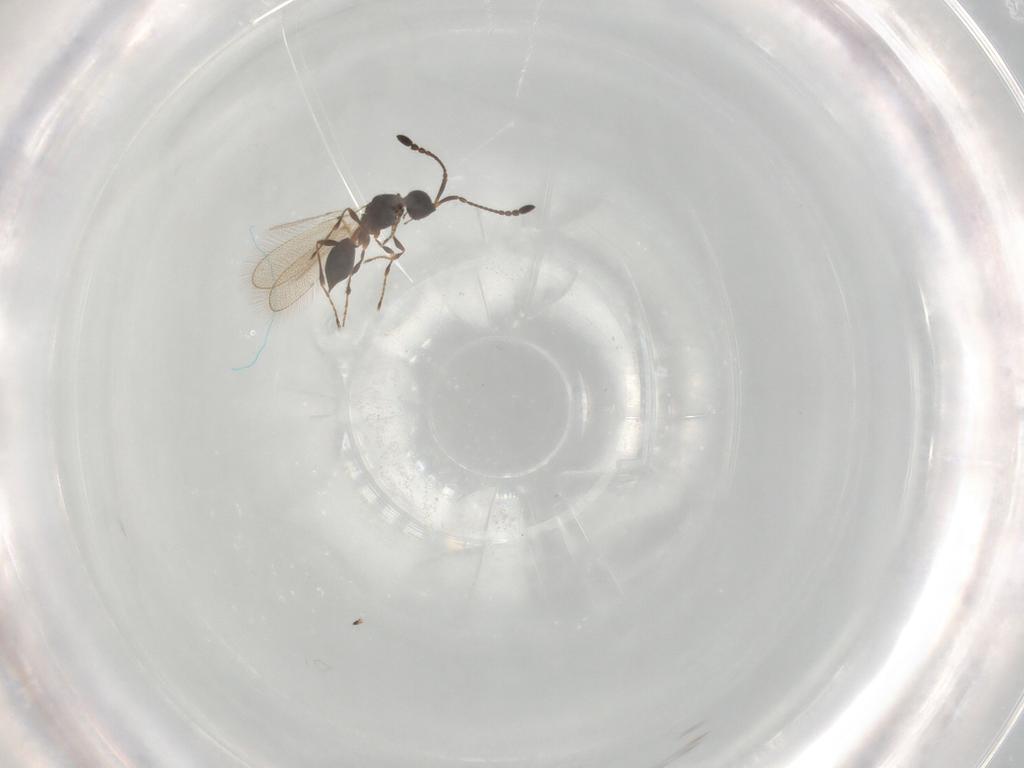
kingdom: Animalia
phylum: Arthropoda
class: Insecta
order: Hymenoptera
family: Diapriidae
